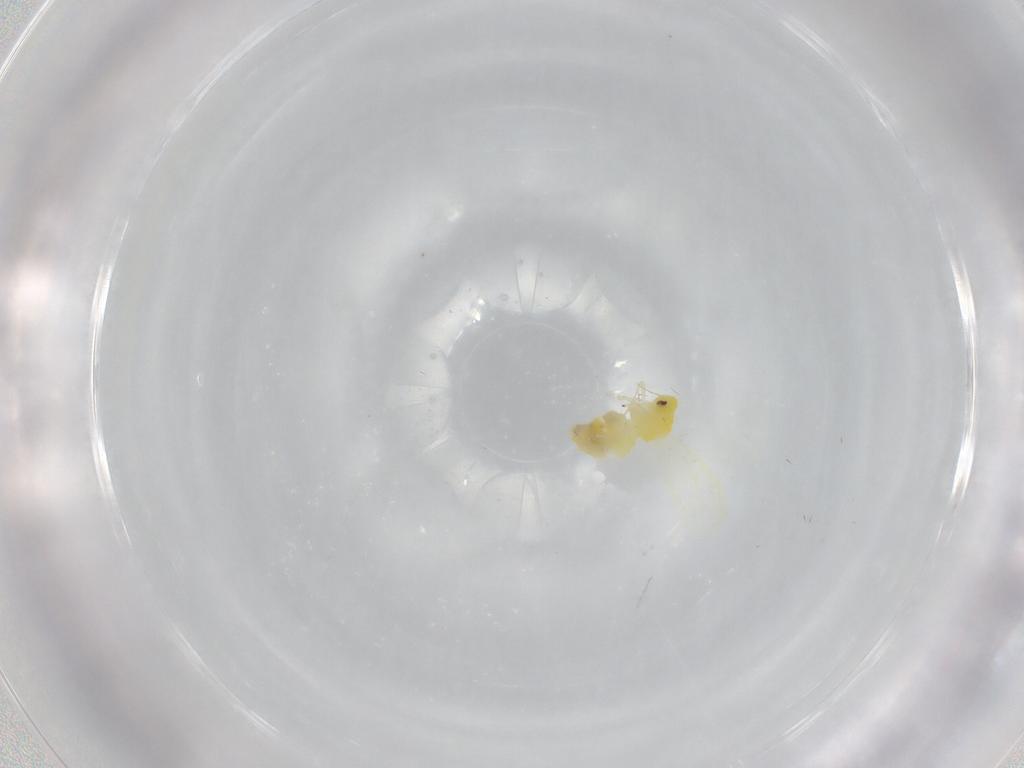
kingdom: Animalia
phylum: Arthropoda
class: Insecta
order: Hemiptera
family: Aleyrodidae
